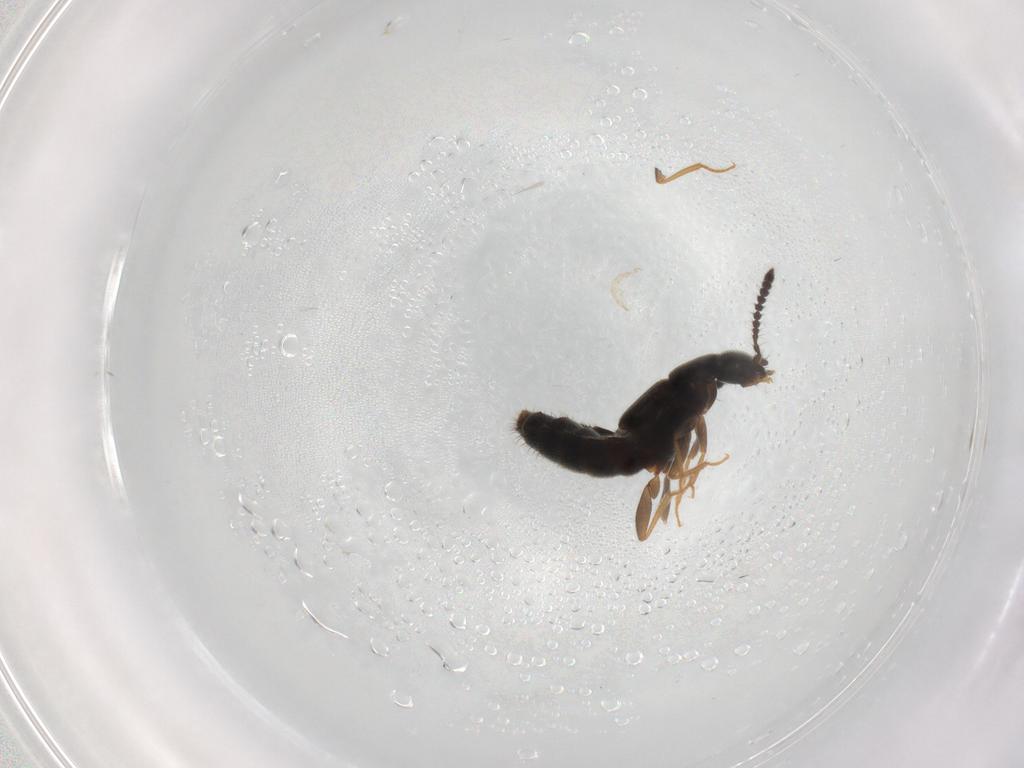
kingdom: Animalia
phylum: Arthropoda
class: Insecta
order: Coleoptera
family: Staphylinidae
